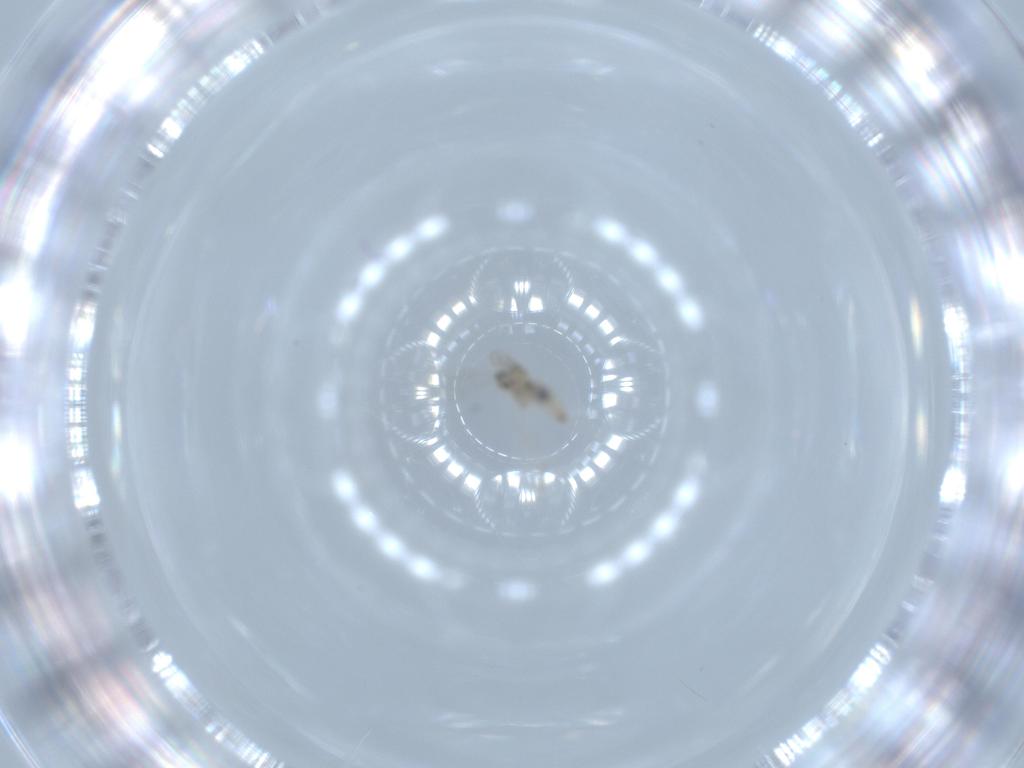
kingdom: Animalia
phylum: Arthropoda
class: Insecta
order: Diptera
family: Cecidomyiidae
